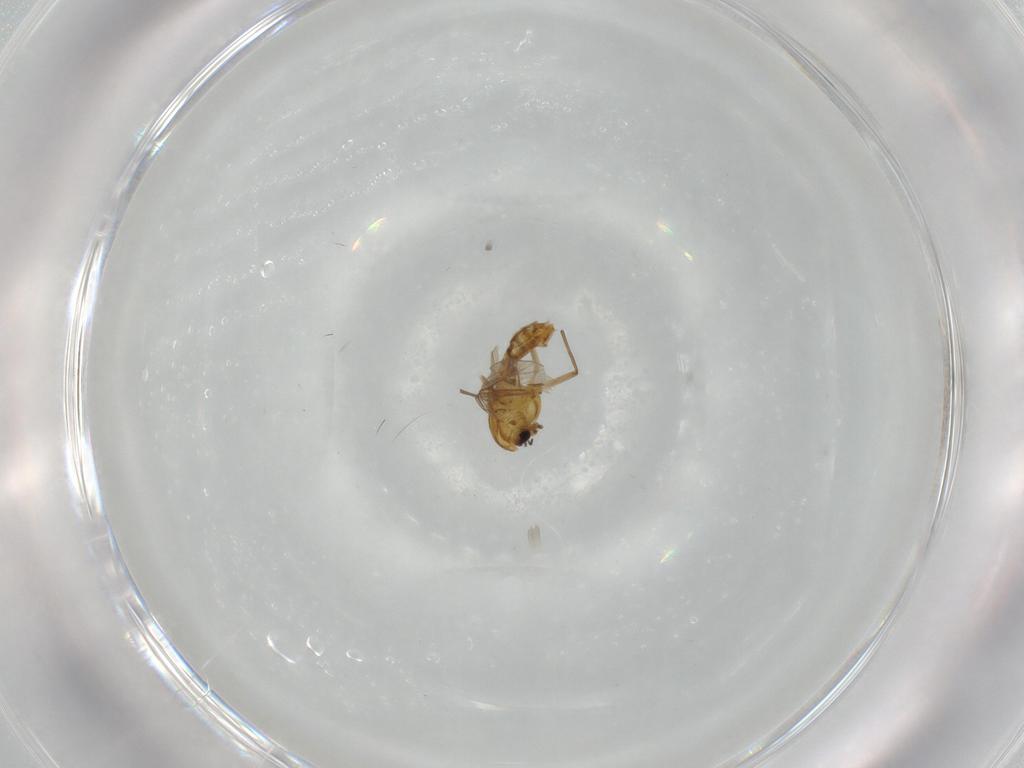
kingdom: Animalia
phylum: Arthropoda
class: Insecta
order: Diptera
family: Chironomidae
